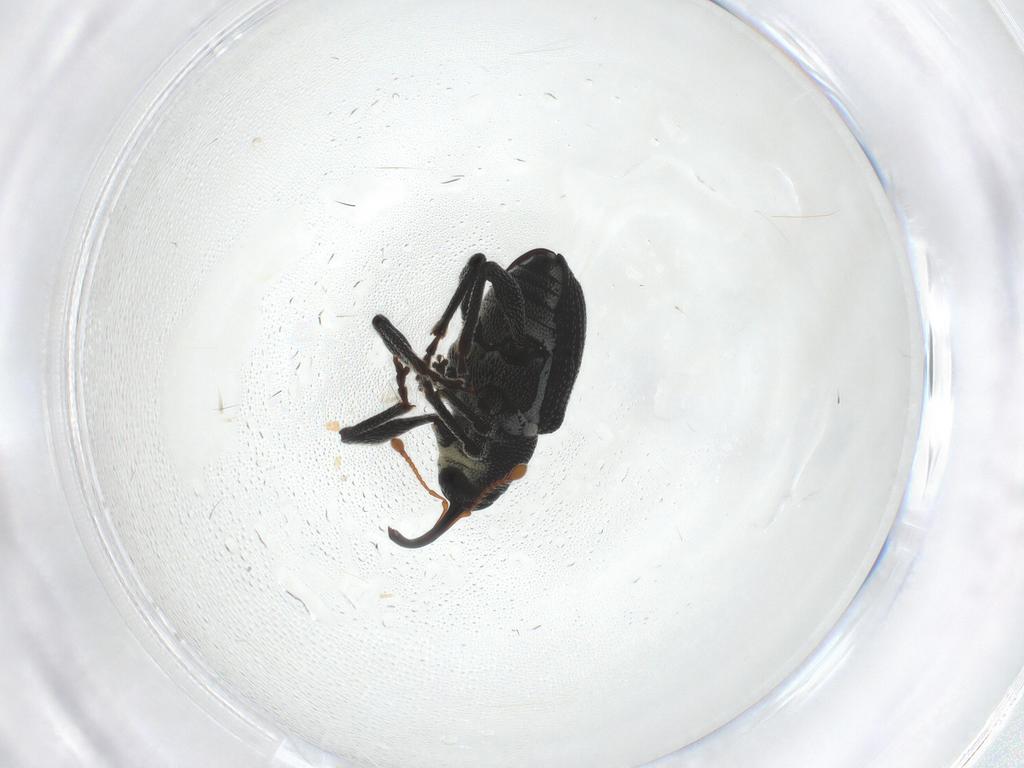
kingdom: Animalia
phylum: Arthropoda
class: Insecta
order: Coleoptera
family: Curculionidae
